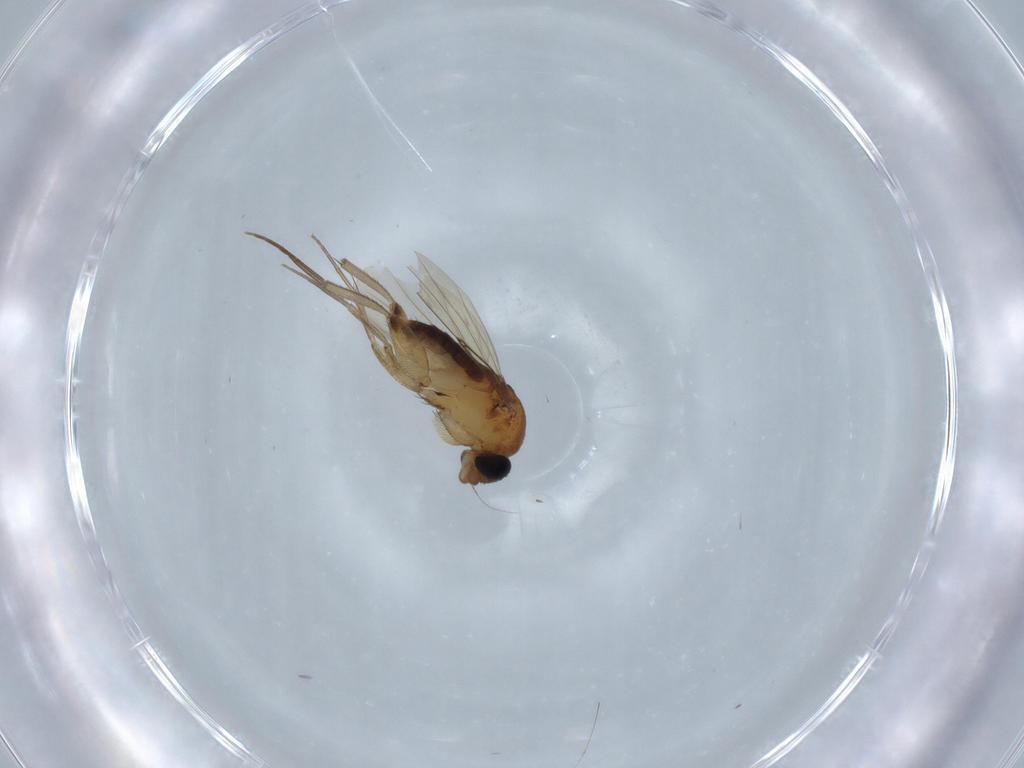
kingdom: Animalia
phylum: Arthropoda
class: Insecta
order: Diptera
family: Phoridae
